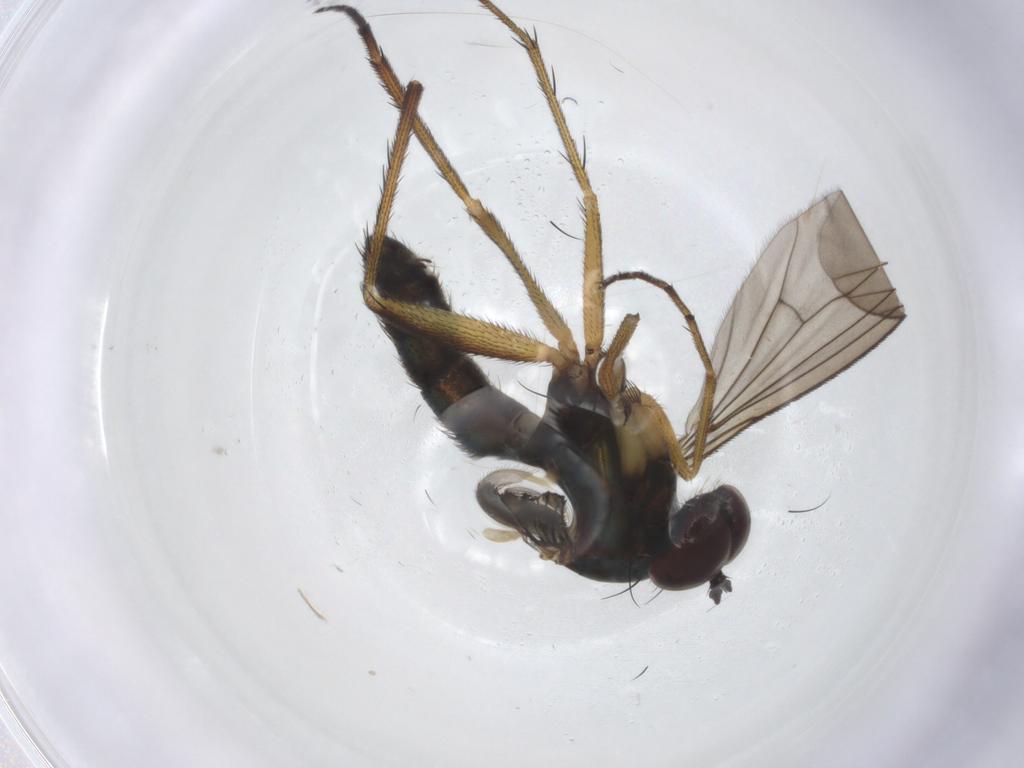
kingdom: Animalia
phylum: Arthropoda
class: Insecta
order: Diptera
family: Dolichopodidae
